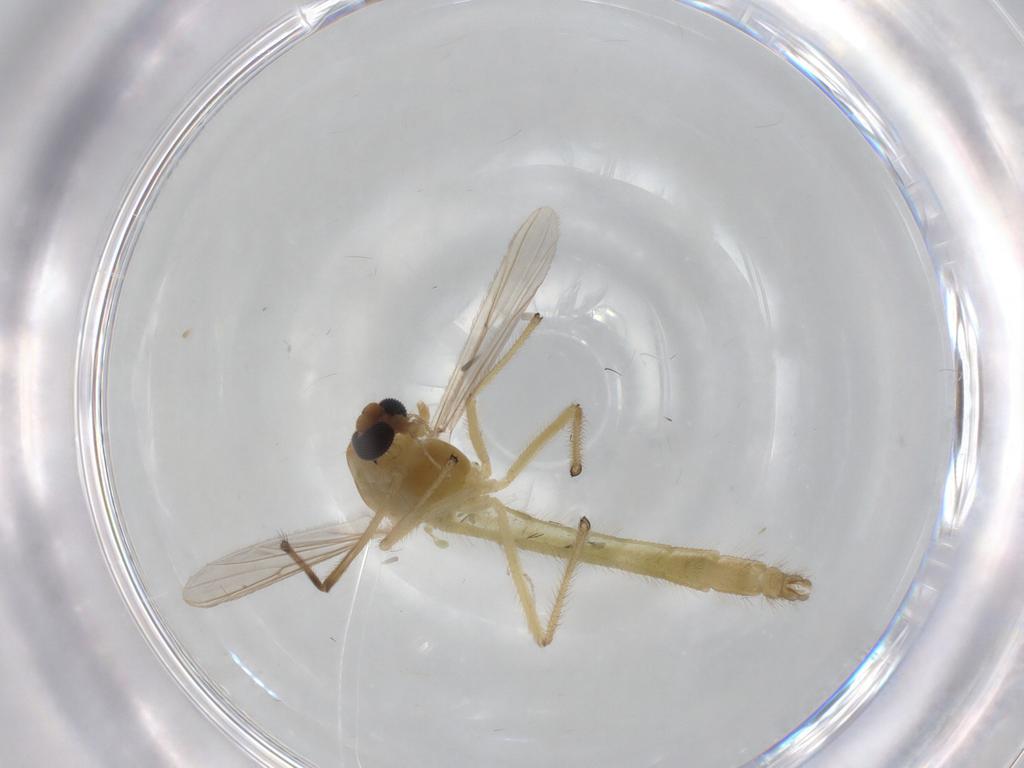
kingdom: Animalia
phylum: Arthropoda
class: Insecta
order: Diptera
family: Chironomidae
